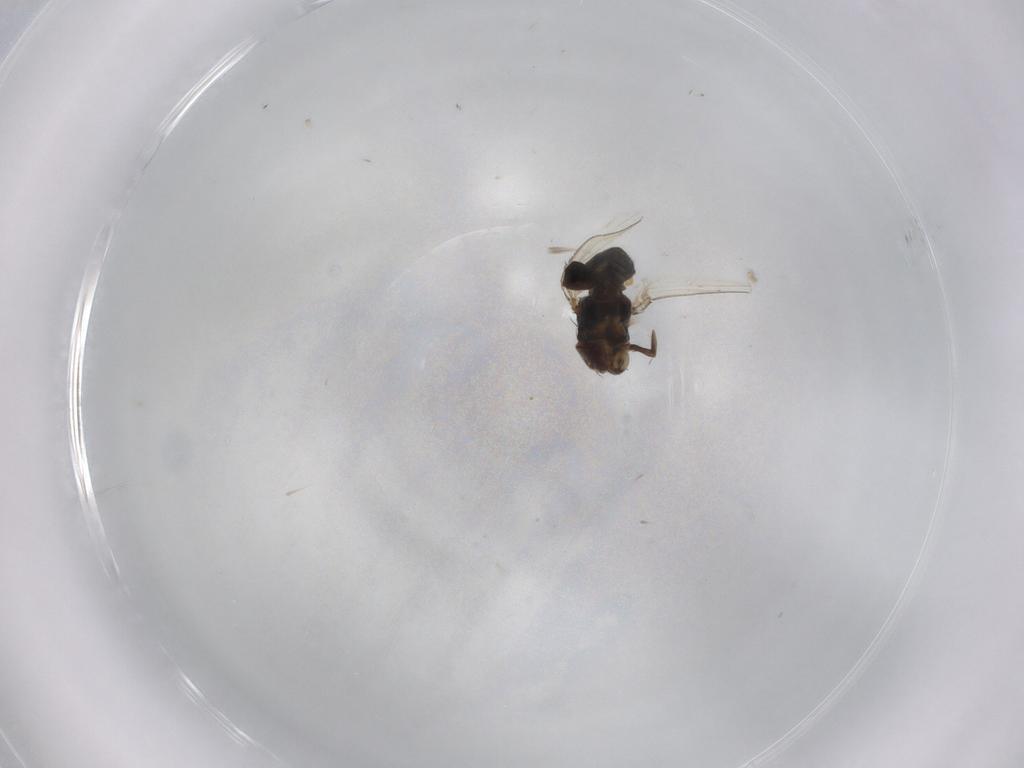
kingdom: Animalia
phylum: Arthropoda
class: Insecta
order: Diptera
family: Milichiidae
